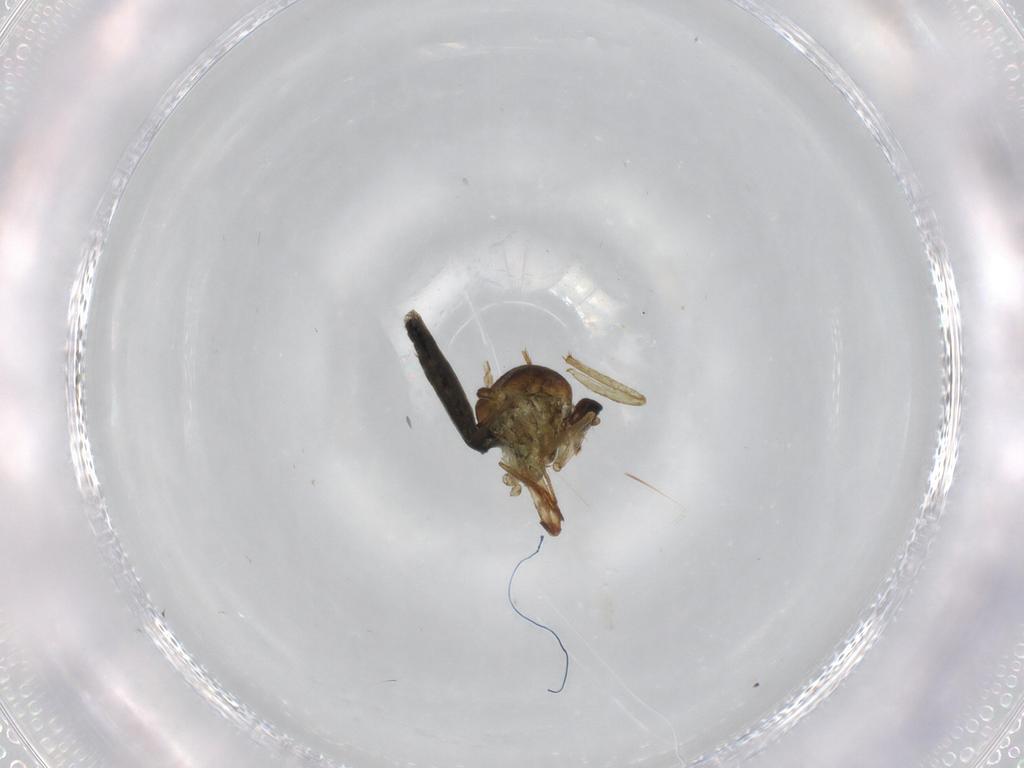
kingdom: Animalia
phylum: Arthropoda
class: Insecta
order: Diptera
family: Ceratopogonidae
